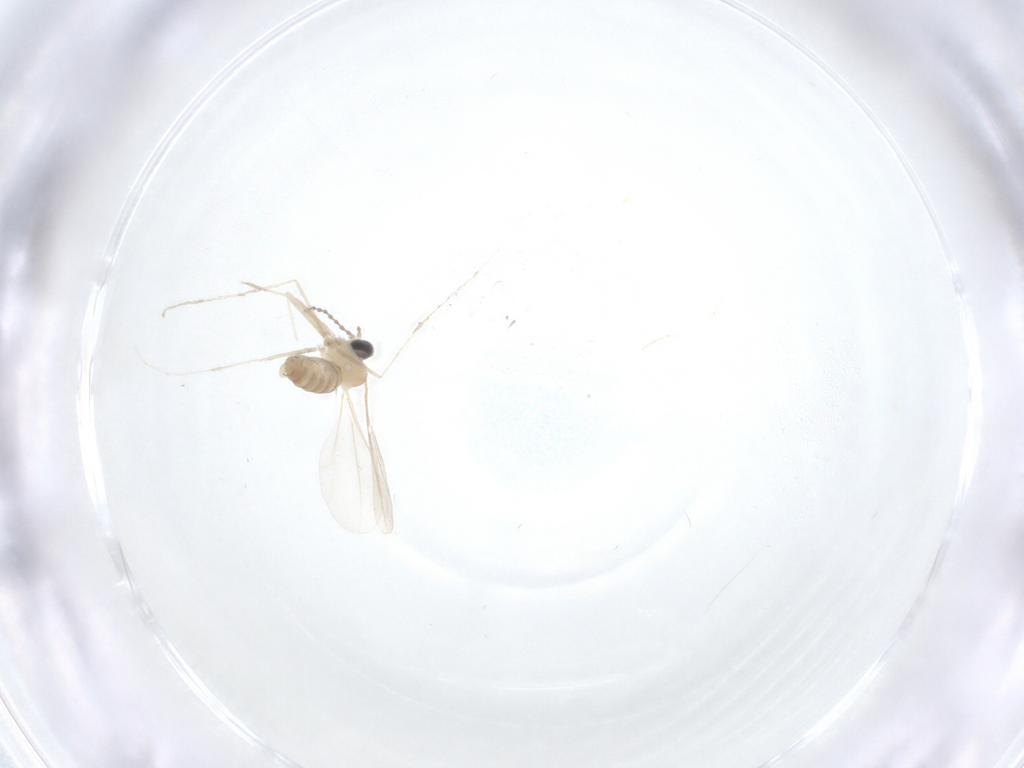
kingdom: Animalia
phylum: Arthropoda
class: Insecta
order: Diptera
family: Cecidomyiidae
